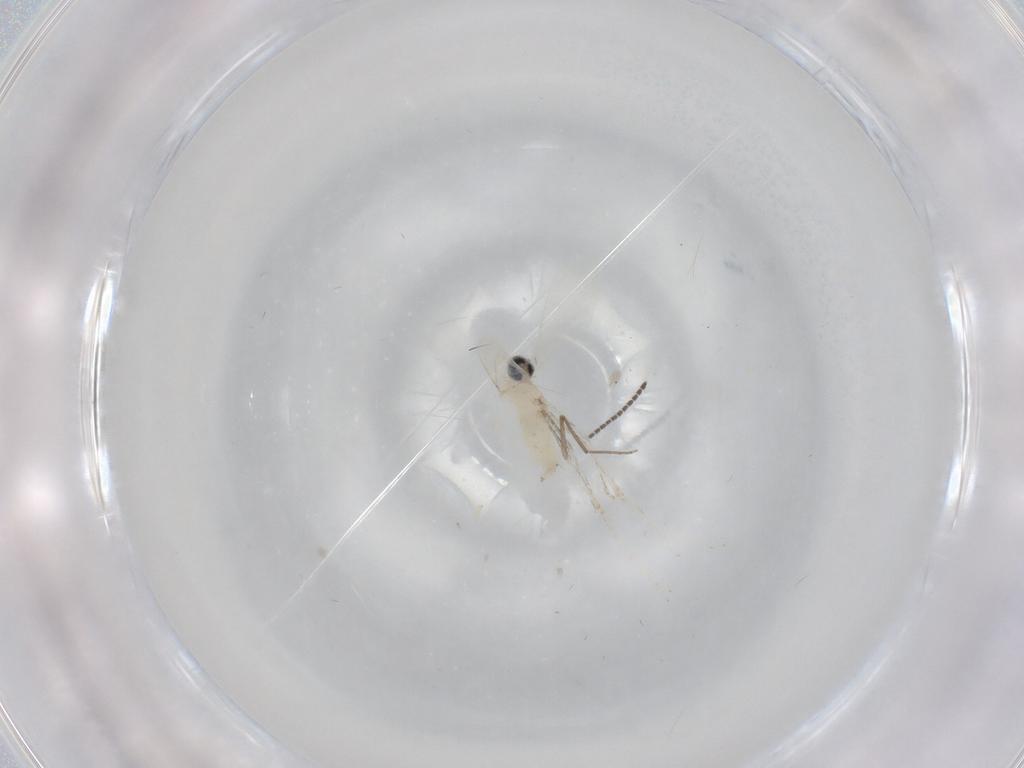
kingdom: Animalia
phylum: Arthropoda
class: Insecta
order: Diptera
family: Cecidomyiidae
